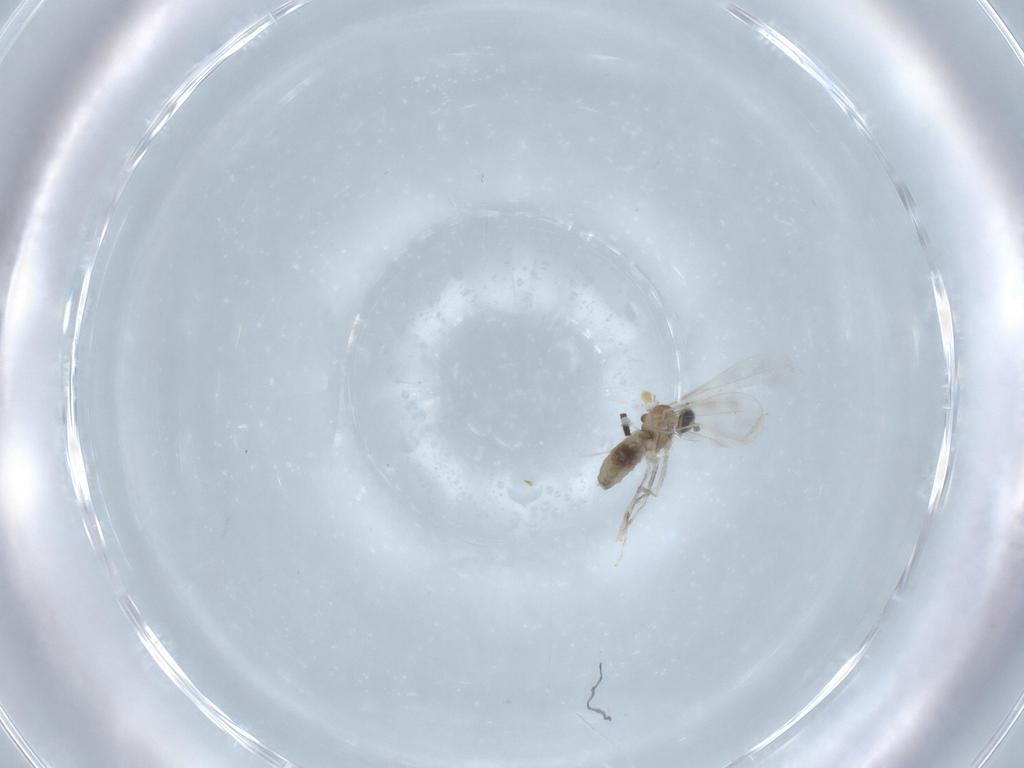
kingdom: Animalia
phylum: Arthropoda
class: Insecta
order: Diptera
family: Cecidomyiidae
